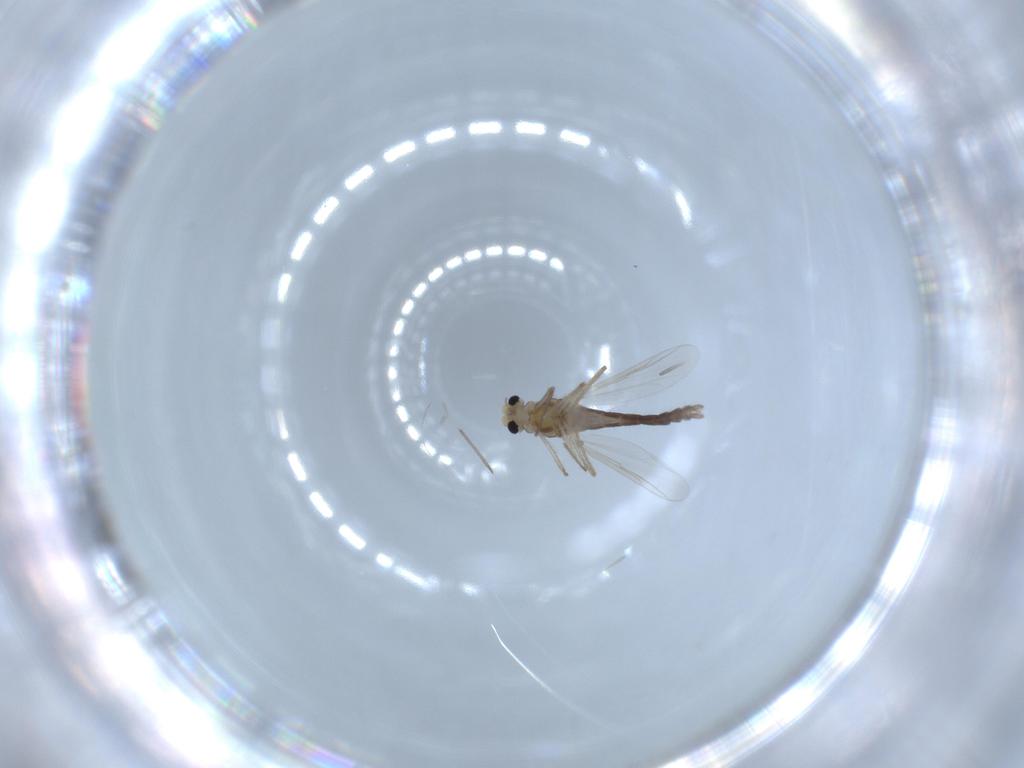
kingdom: Animalia
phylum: Arthropoda
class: Insecta
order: Diptera
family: Chironomidae
